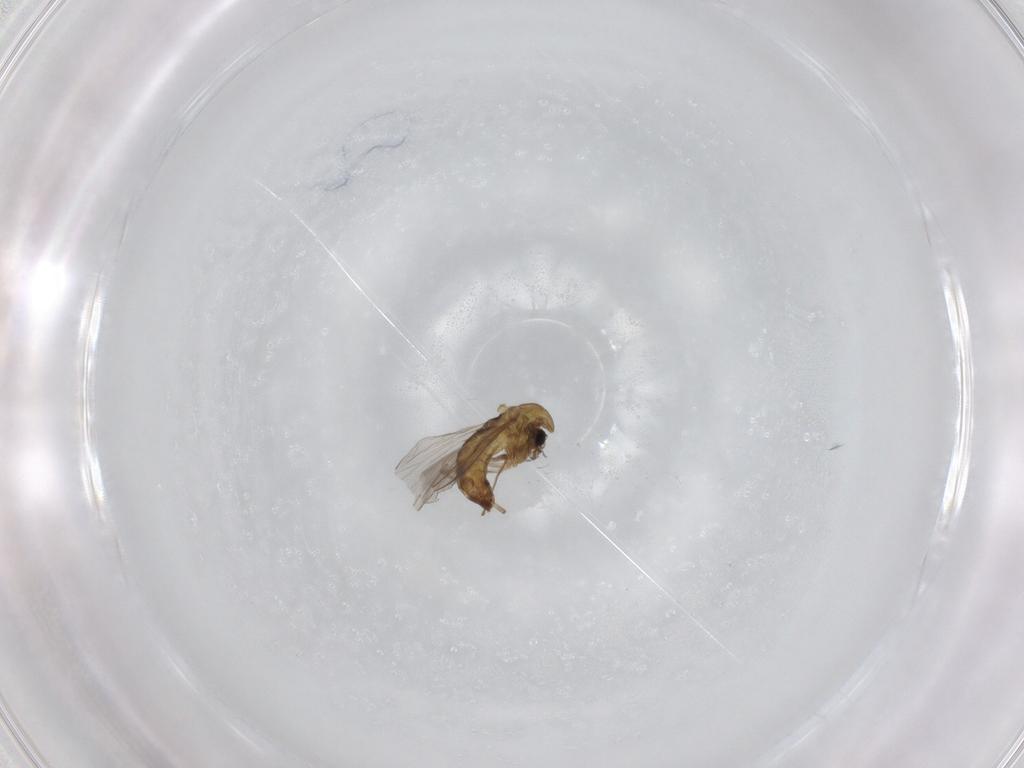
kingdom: Animalia
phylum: Arthropoda
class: Insecta
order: Diptera
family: Chironomidae
